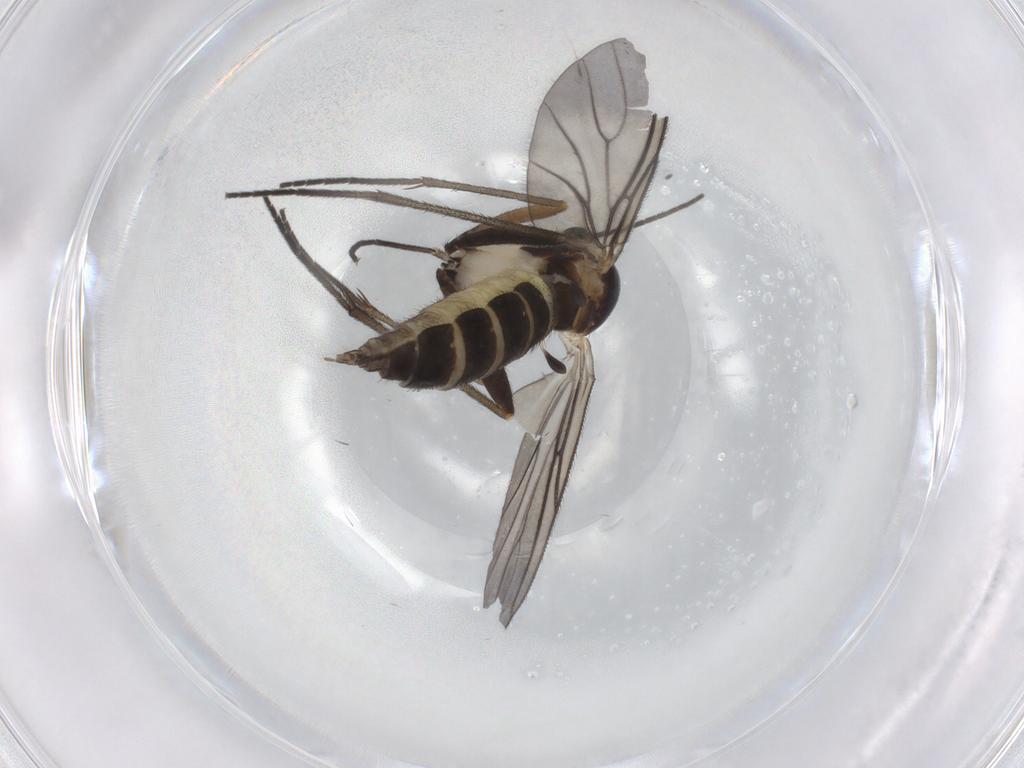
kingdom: Animalia
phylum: Arthropoda
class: Insecta
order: Diptera
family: Sciaridae
